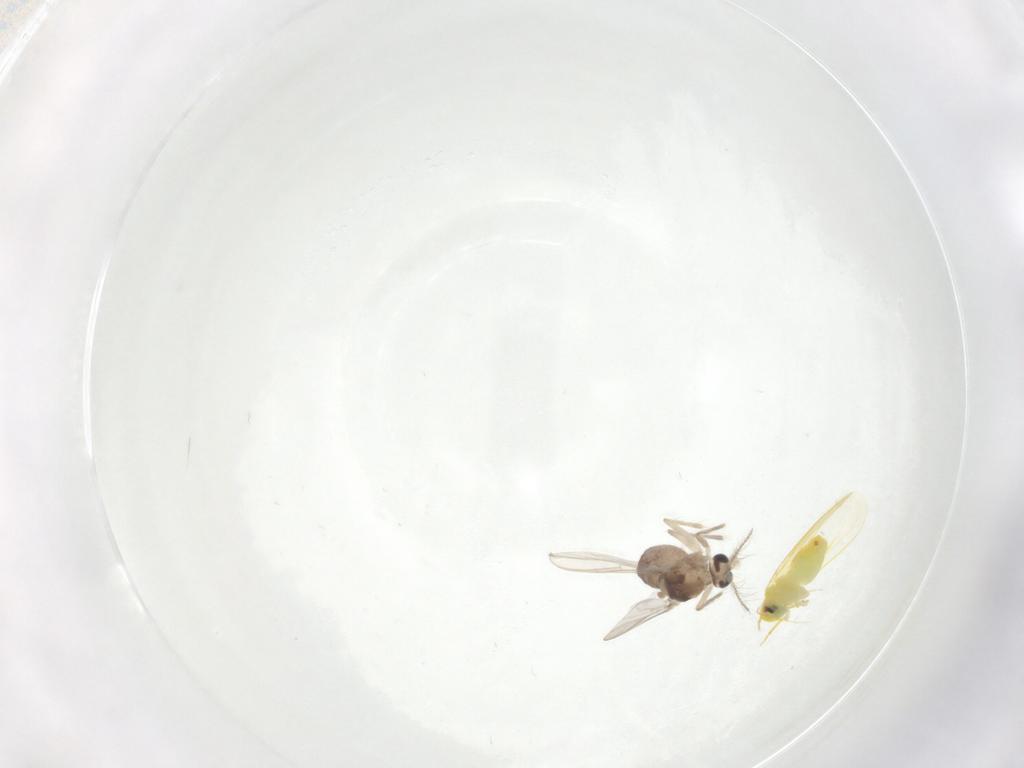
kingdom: Animalia
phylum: Arthropoda
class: Insecta
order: Diptera
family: Chironomidae
